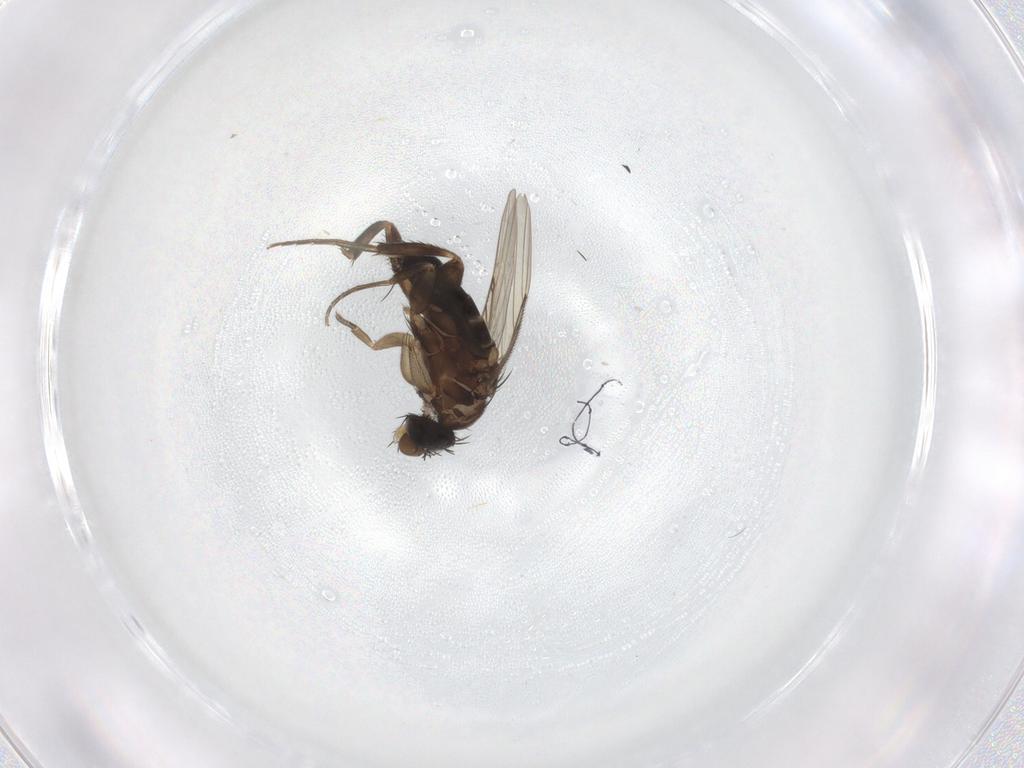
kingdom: Animalia
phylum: Arthropoda
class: Insecta
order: Diptera
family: Phoridae
